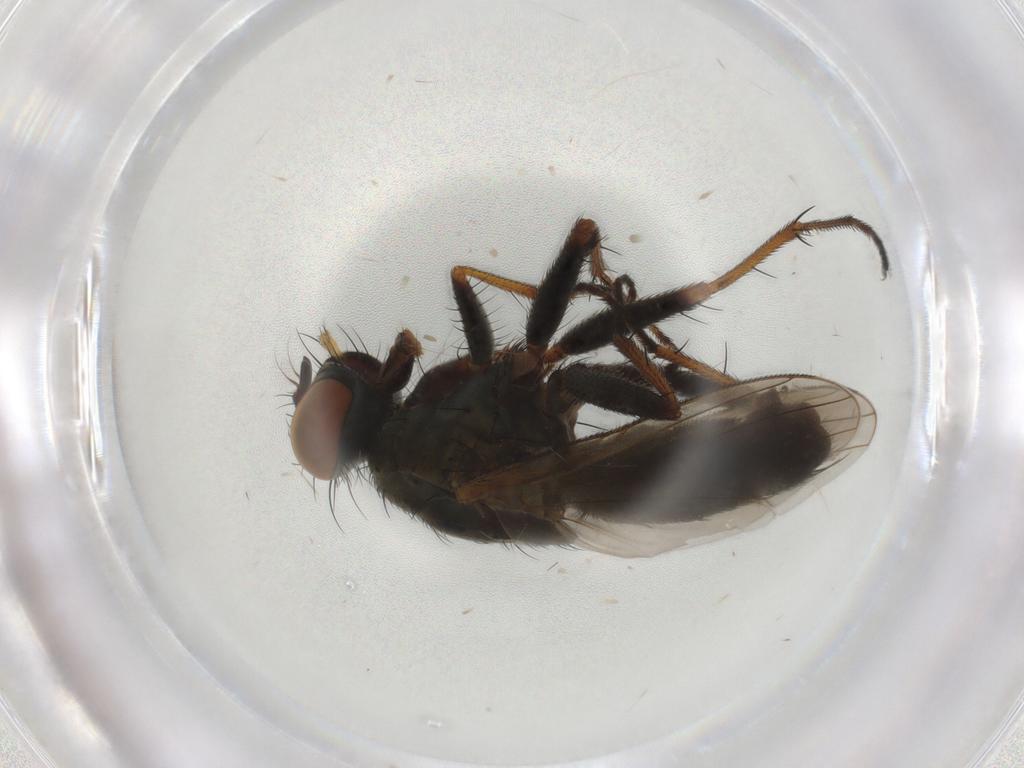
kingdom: Animalia
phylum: Arthropoda
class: Insecta
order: Diptera
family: Muscidae
